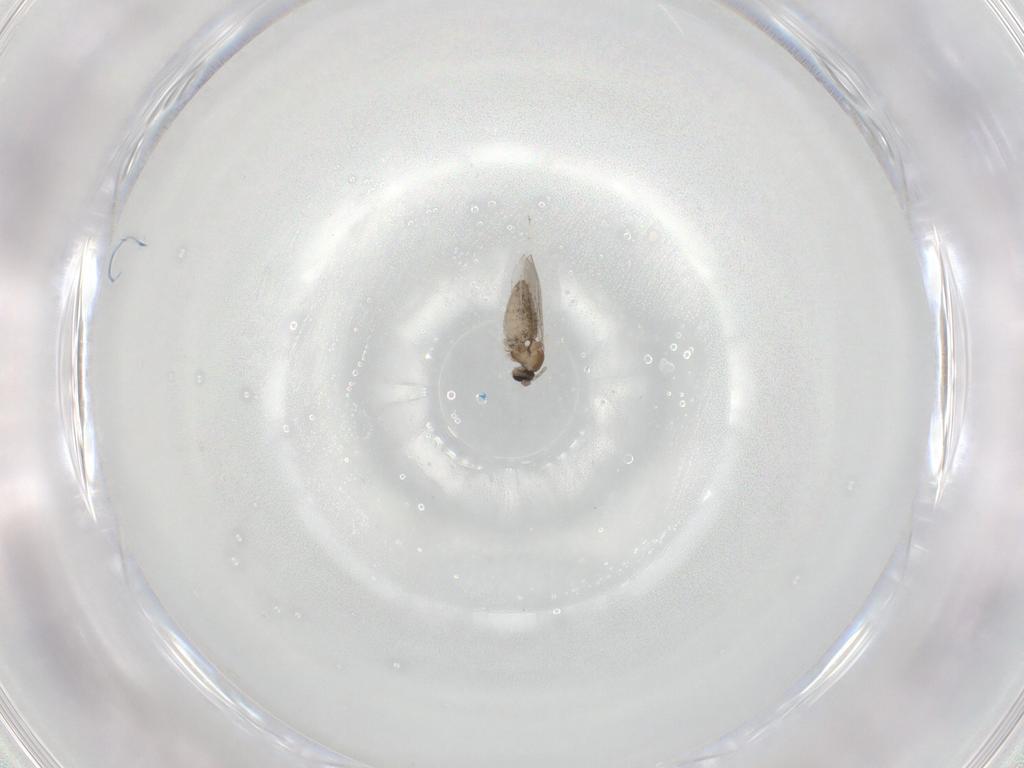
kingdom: Animalia
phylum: Arthropoda
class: Insecta
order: Diptera
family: Cecidomyiidae
